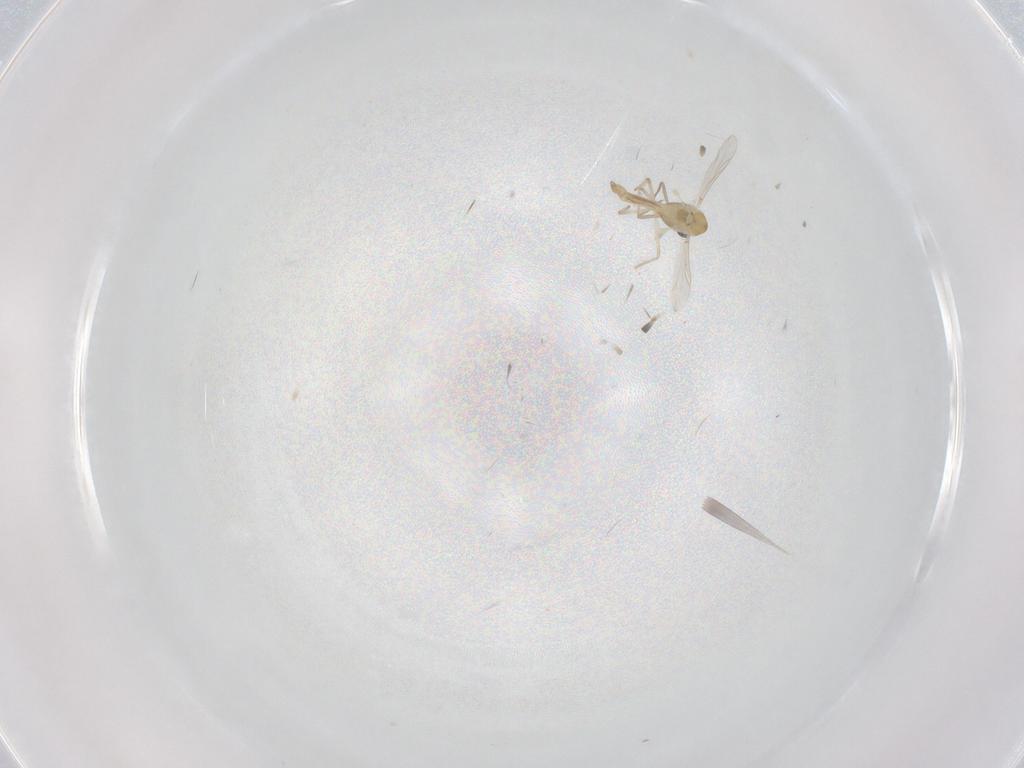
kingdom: Animalia
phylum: Arthropoda
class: Insecta
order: Diptera
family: Chironomidae
